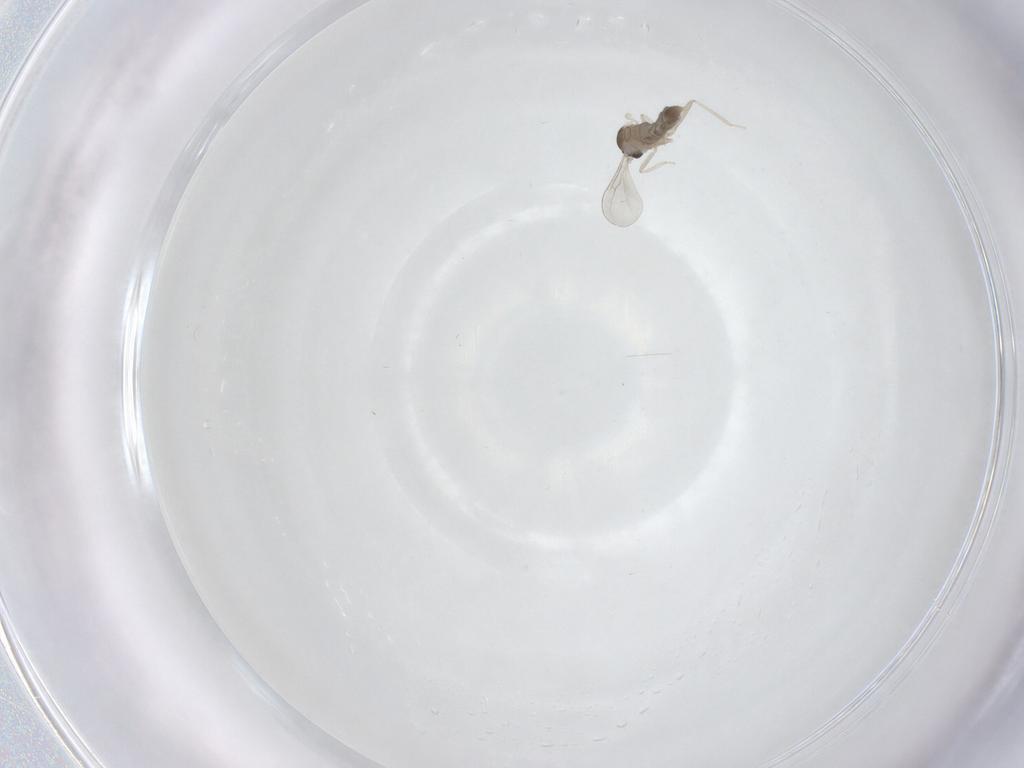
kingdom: Animalia
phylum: Arthropoda
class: Insecta
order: Diptera
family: Cecidomyiidae
